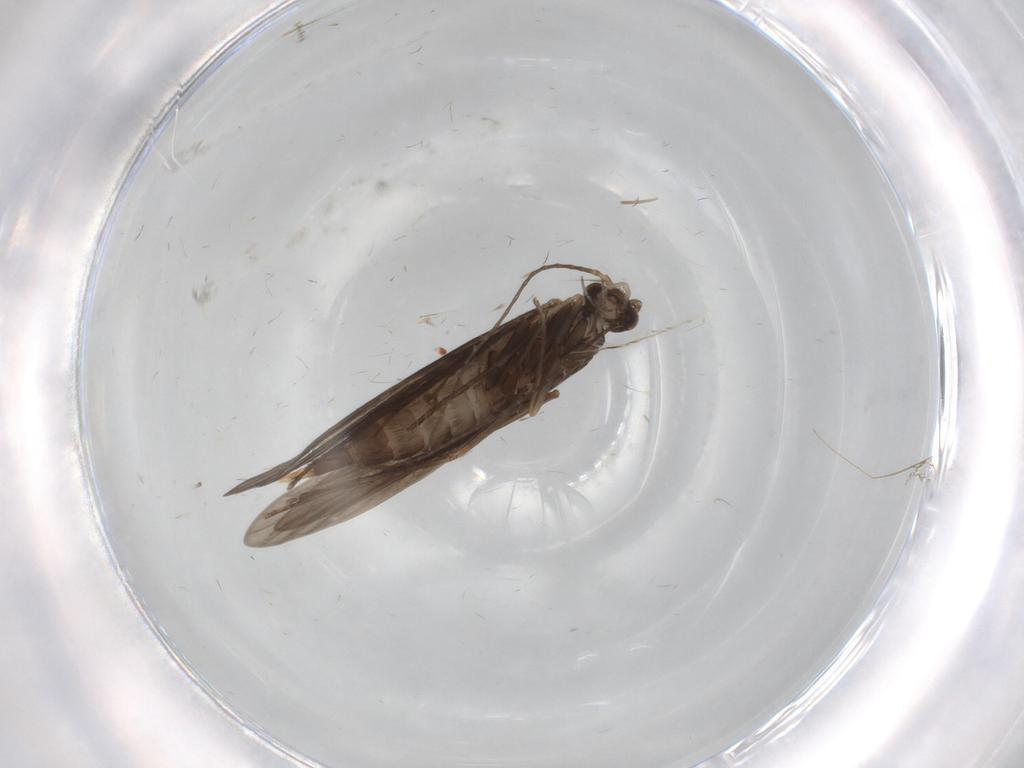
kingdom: Animalia
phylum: Arthropoda
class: Insecta
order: Trichoptera
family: Xiphocentronidae
